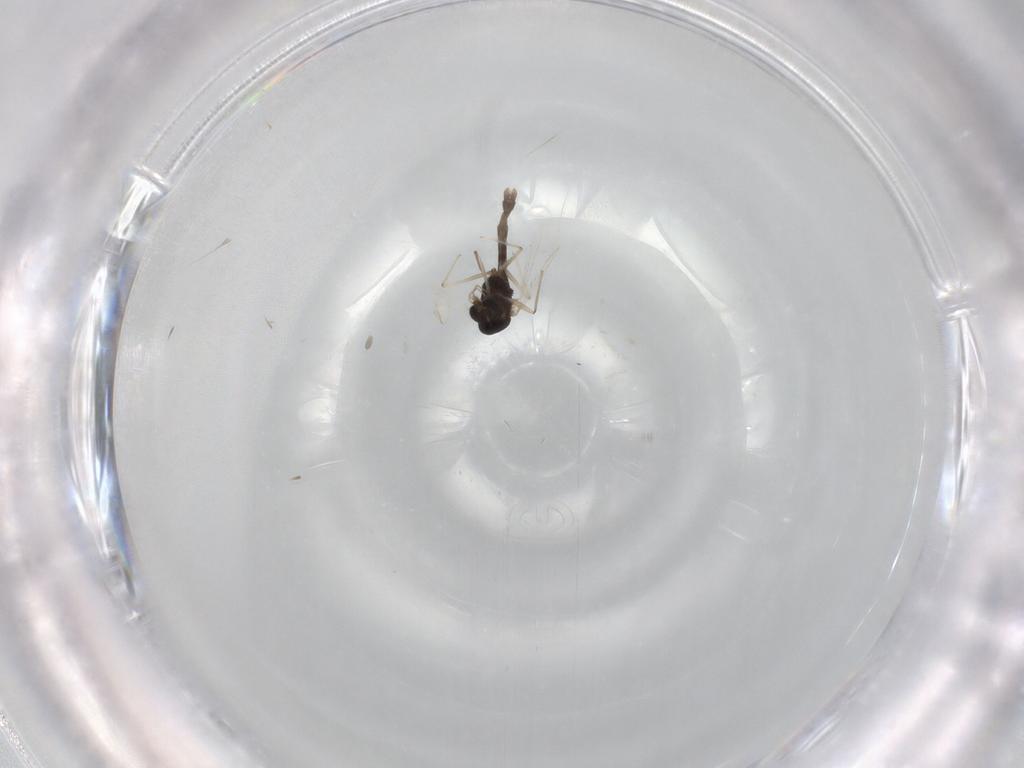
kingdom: Animalia
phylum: Arthropoda
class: Insecta
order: Diptera
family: Chironomidae
